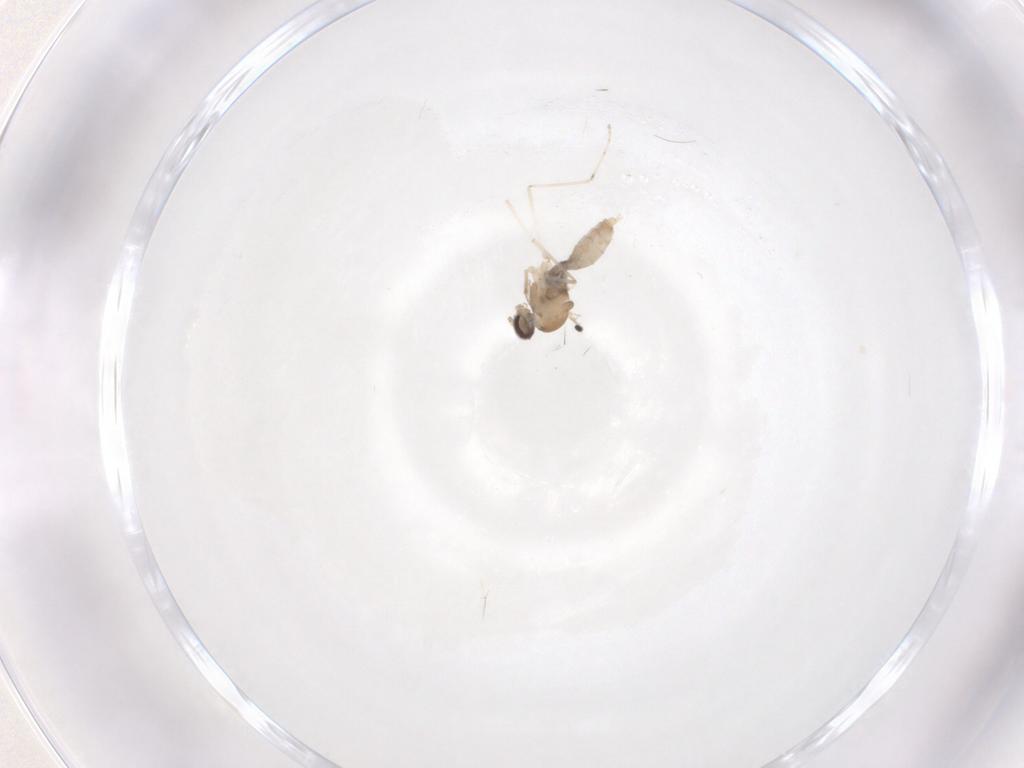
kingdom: Animalia
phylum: Arthropoda
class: Insecta
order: Diptera
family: Cecidomyiidae
